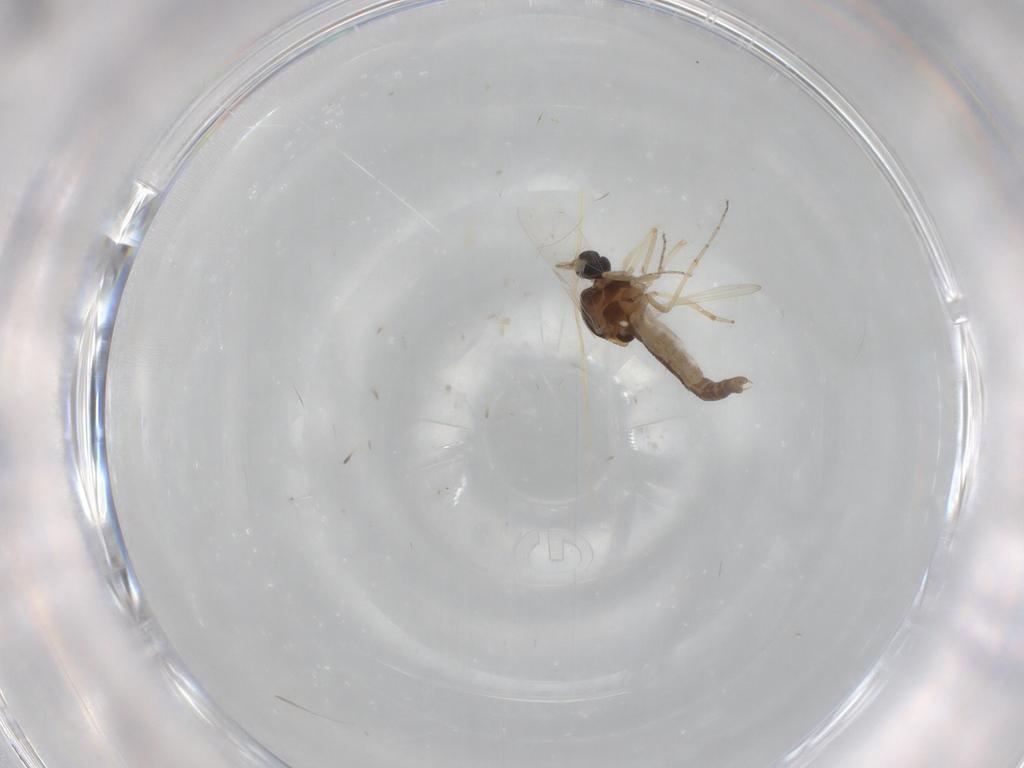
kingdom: Animalia
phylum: Arthropoda
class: Insecta
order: Diptera
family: Ceratopogonidae
